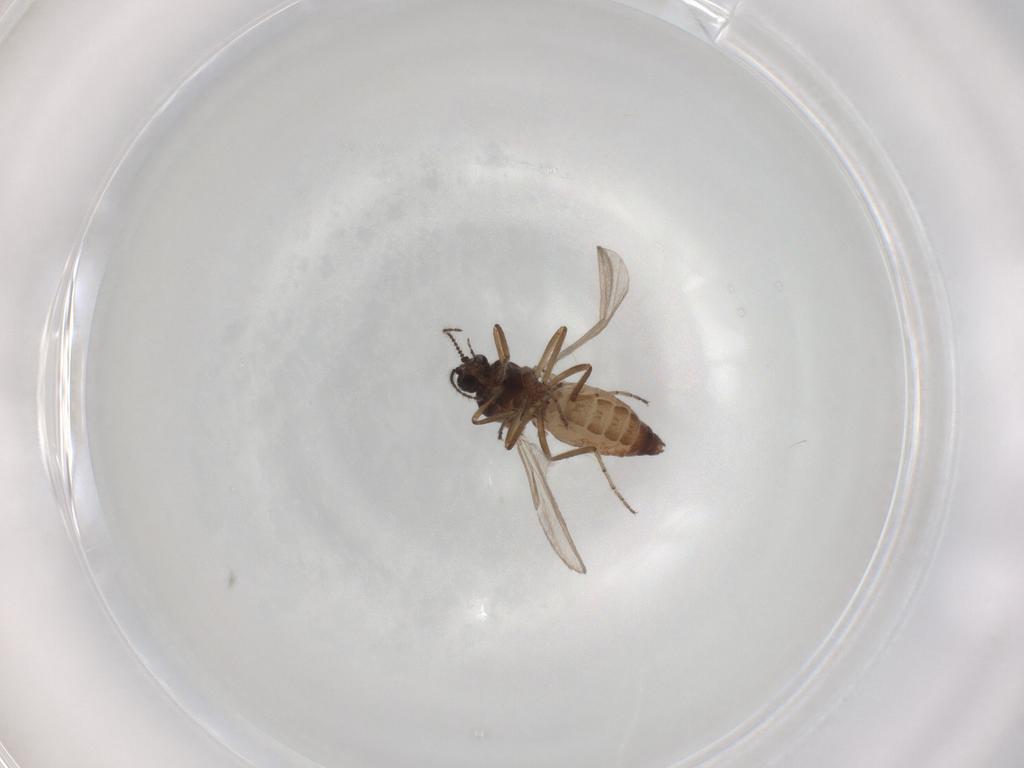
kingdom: Animalia
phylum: Arthropoda
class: Insecta
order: Diptera
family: Ceratopogonidae
